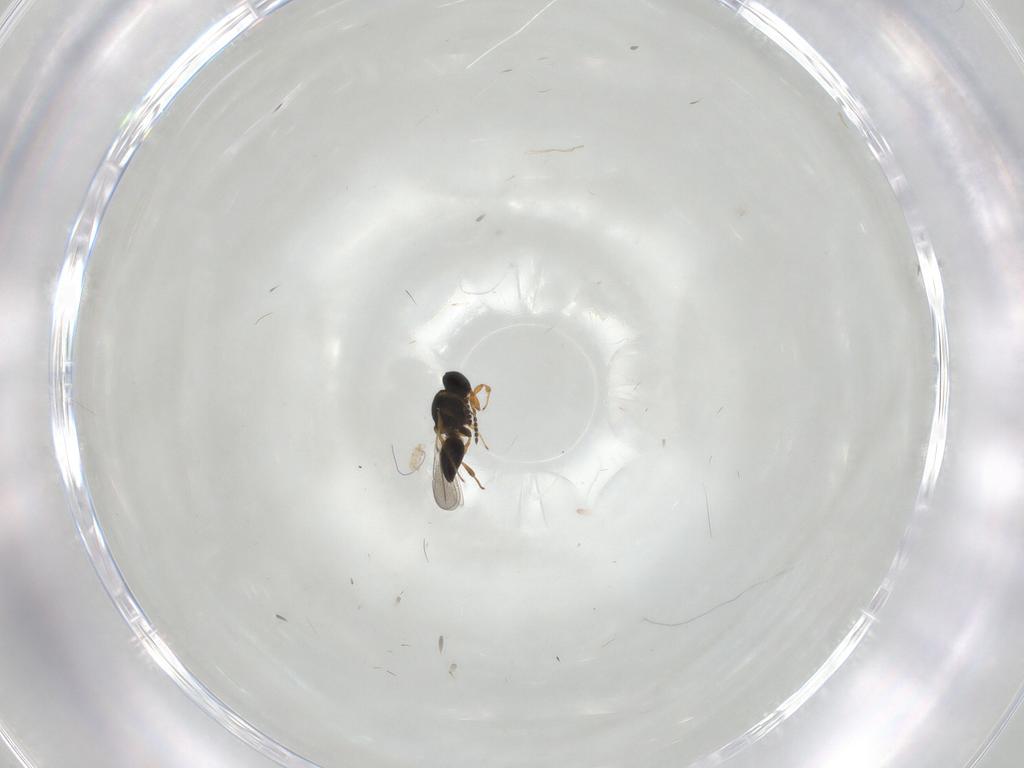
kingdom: Animalia
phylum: Arthropoda
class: Insecta
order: Hymenoptera
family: Platygastridae
